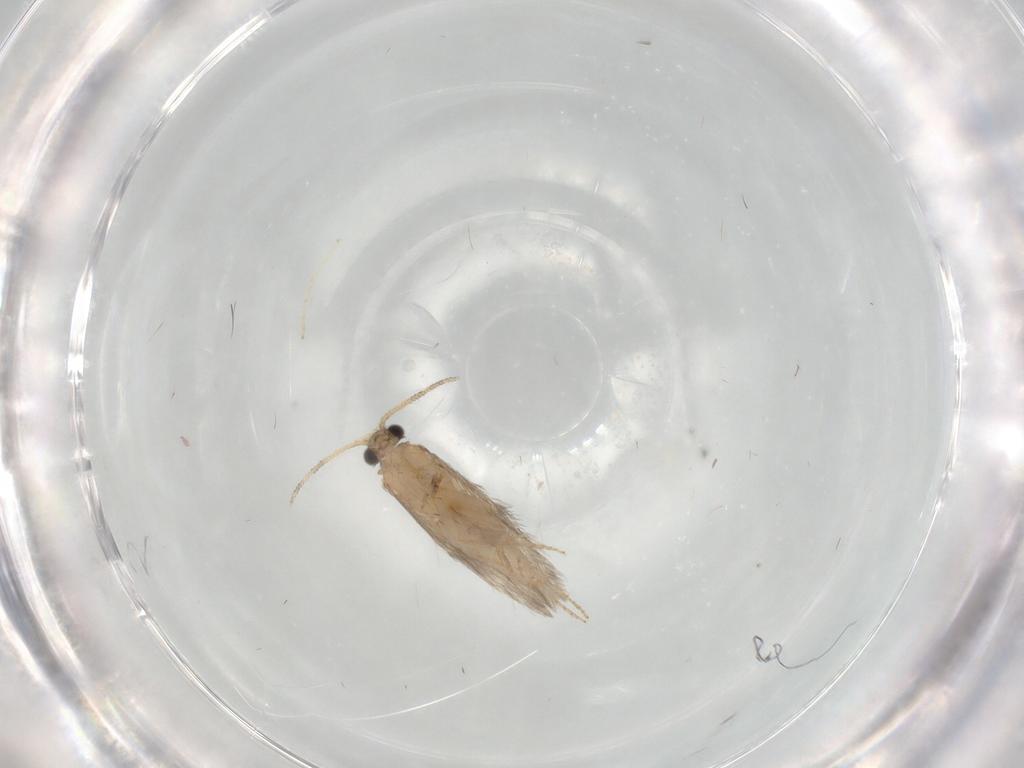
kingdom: Animalia
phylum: Arthropoda
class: Insecta
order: Trichoptera
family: Hydroptilidae
